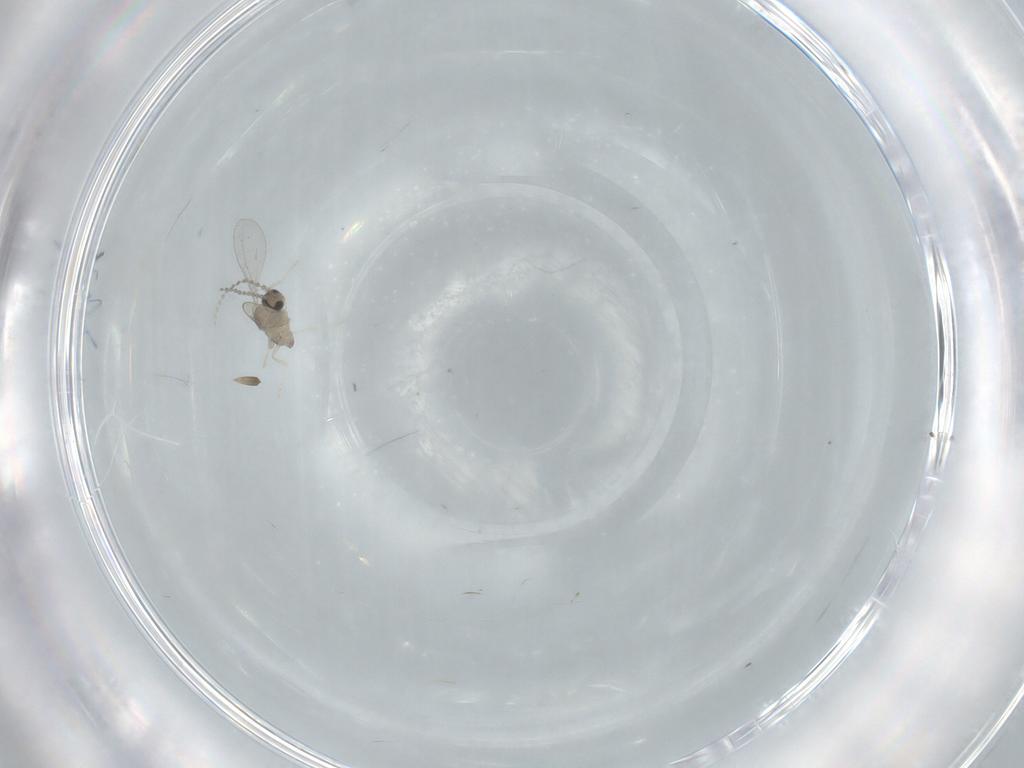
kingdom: Animalia
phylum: Arthropoda
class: Insecta
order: Diptera
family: Cecidomyiidae
